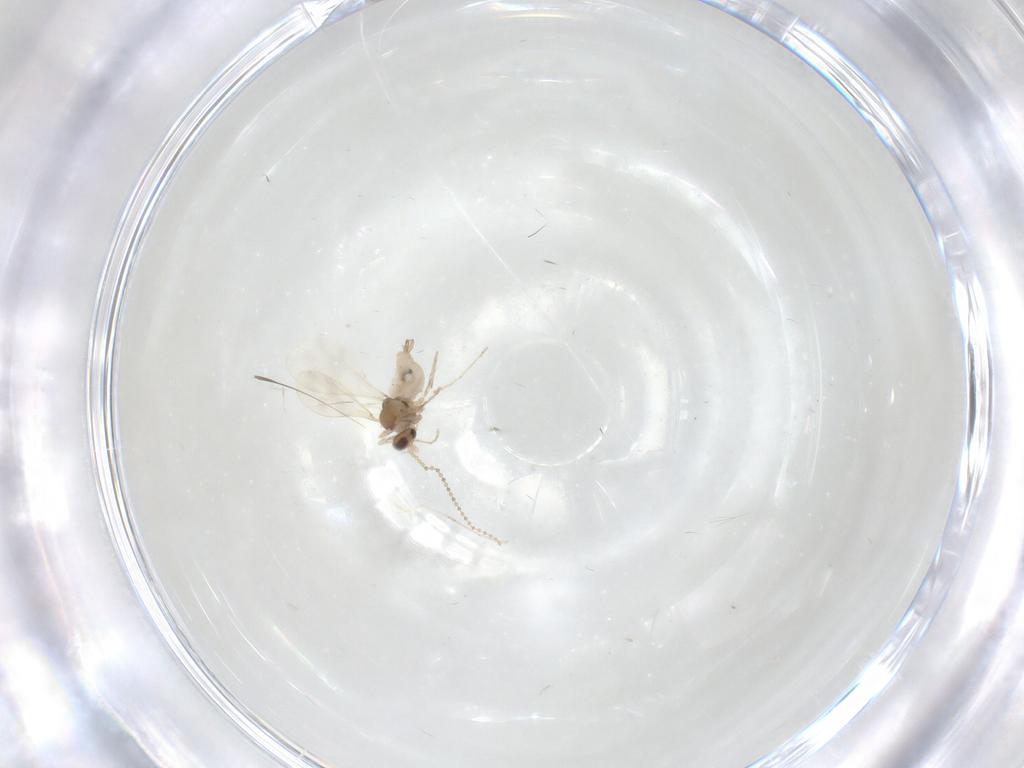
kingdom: Animalia
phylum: Arthropoda
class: Insecta
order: Diptera
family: Cecidomyiidae
